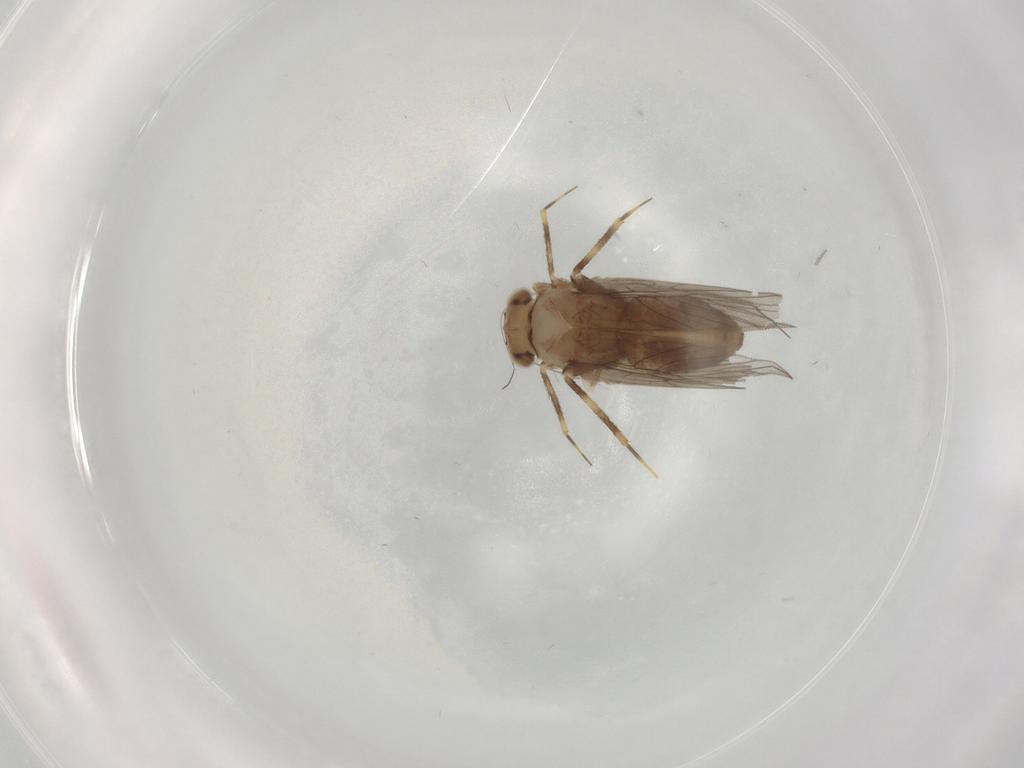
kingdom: Animalia
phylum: Arthropoda
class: Insecta
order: Psocodea
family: Lepidopsocidae
